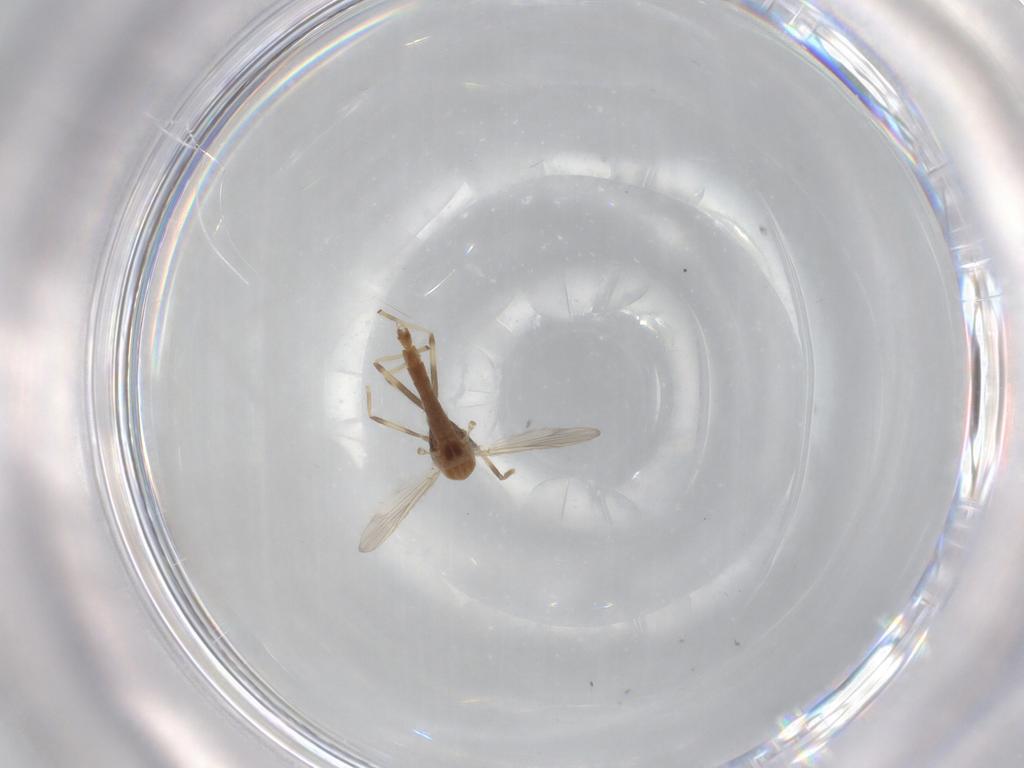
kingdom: Animalia
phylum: Arthropoda
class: Insecta
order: Diptera
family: Chironomidae
